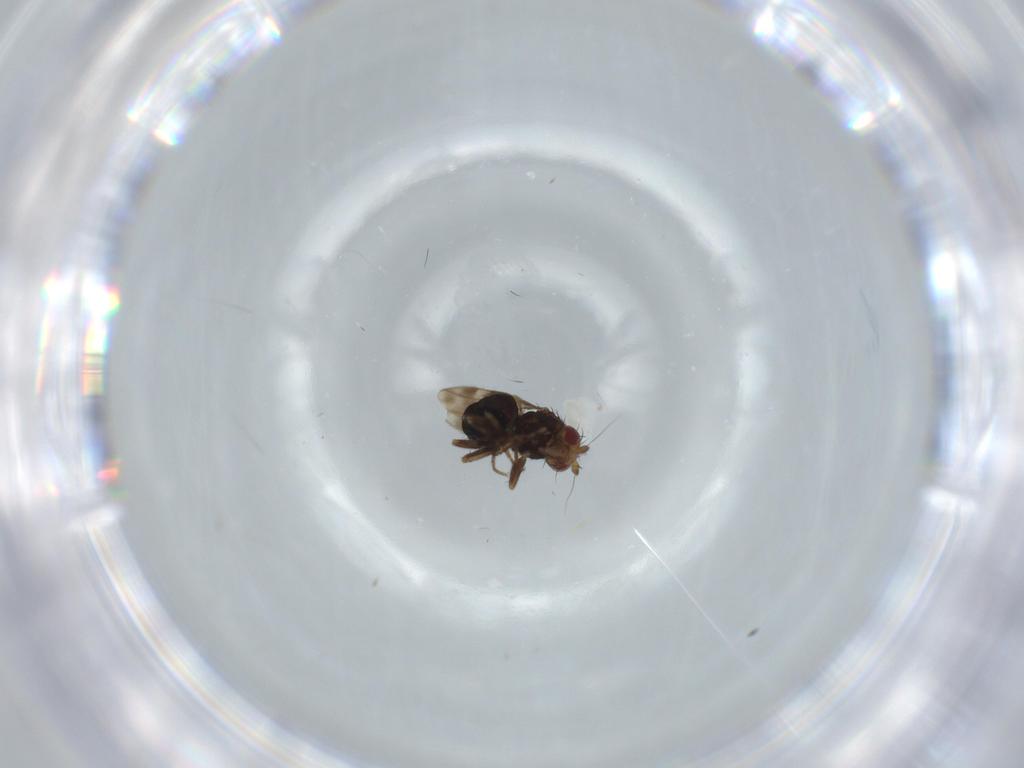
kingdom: Animalia
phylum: Arthropoda
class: Insecta
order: Diptera
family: Sphaeroceridae
